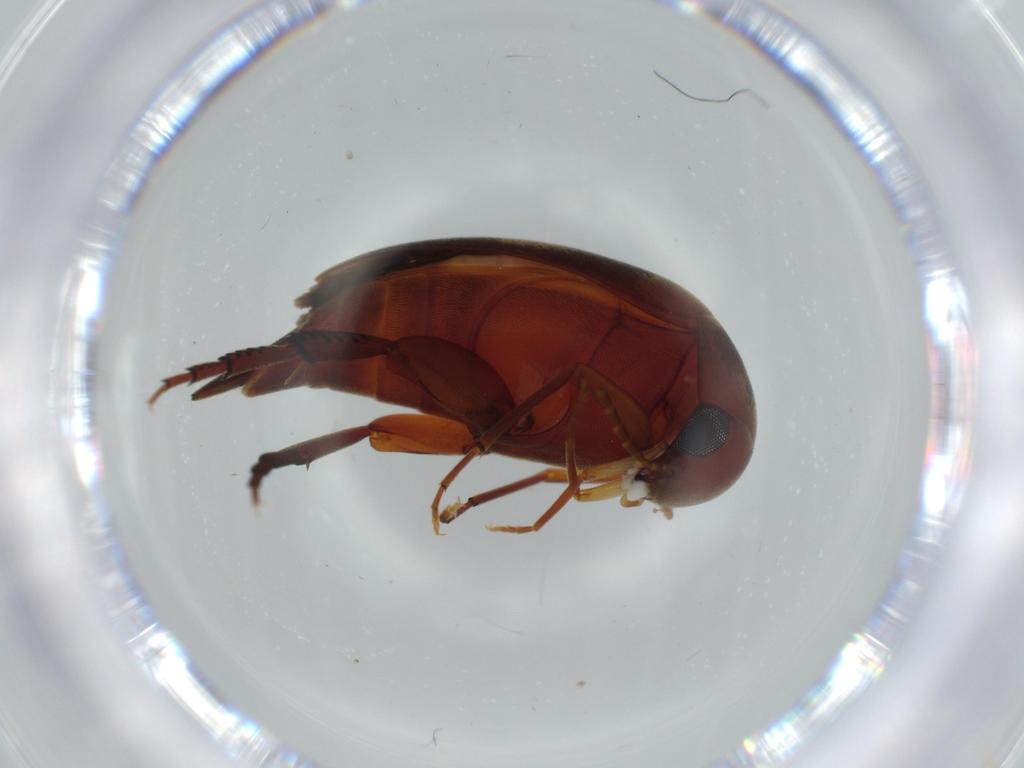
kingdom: Animalia
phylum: Arthropoda
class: Insecta
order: Coleoptera
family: Mordellidae
